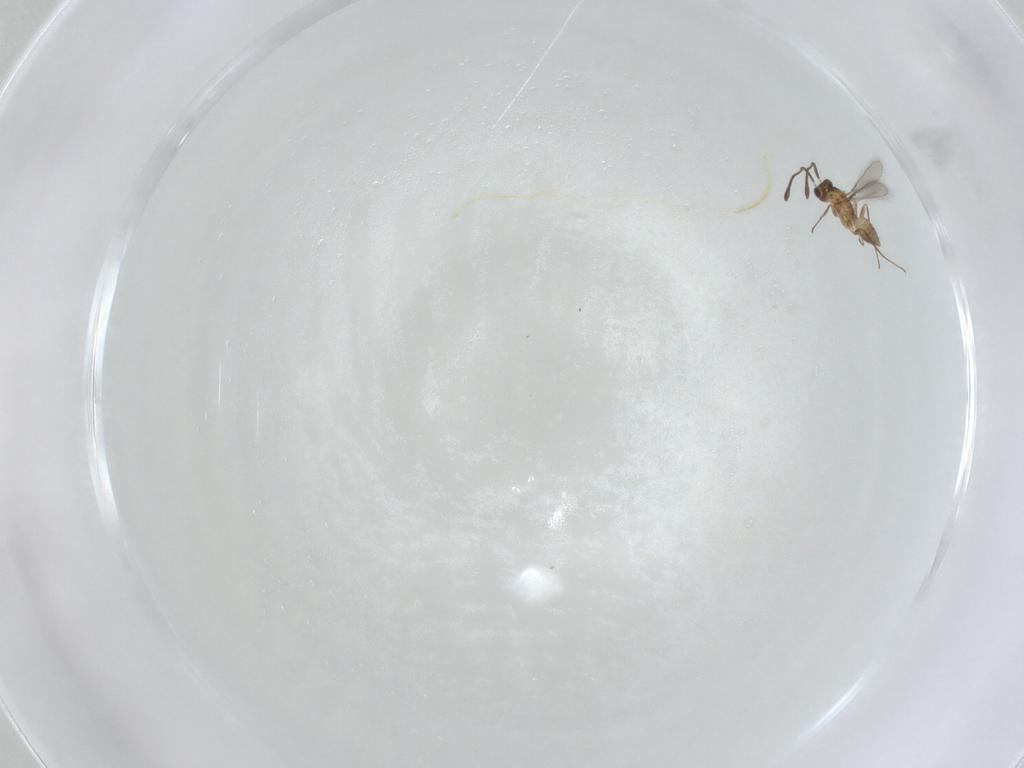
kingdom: Animalia
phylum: Arthropoda
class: Insecta
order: Hymenoptera
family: Mymaridae
